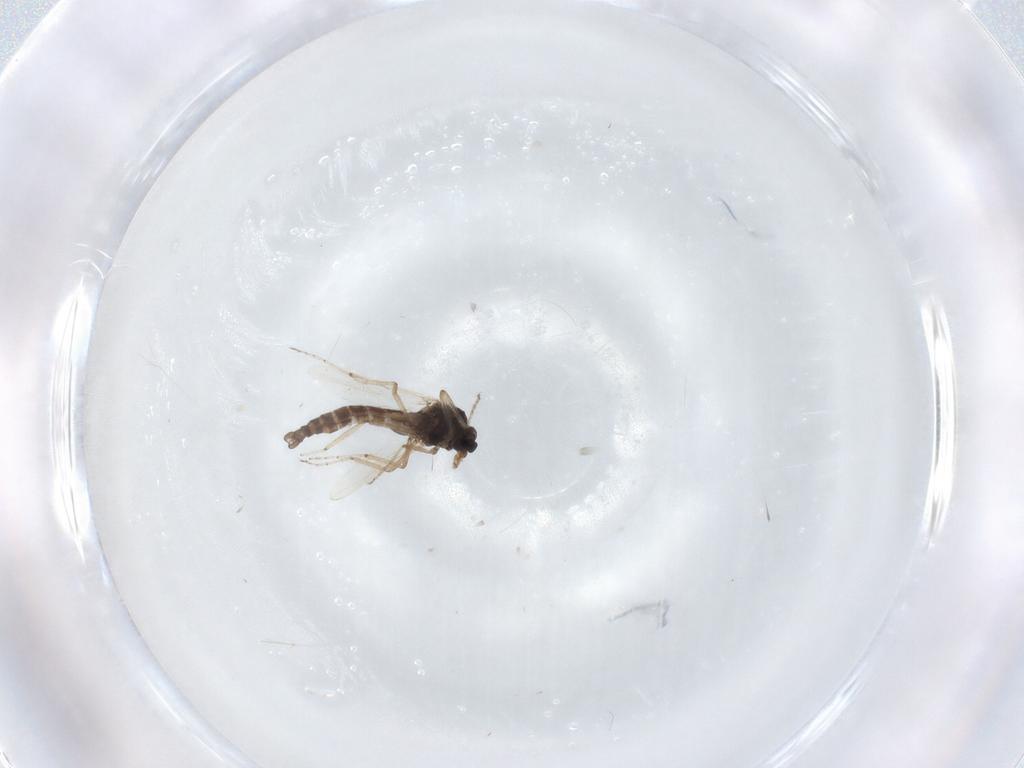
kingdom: Animalia
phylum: Arthropoda
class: Insecta
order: Diptera
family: Ceratopogonidae
